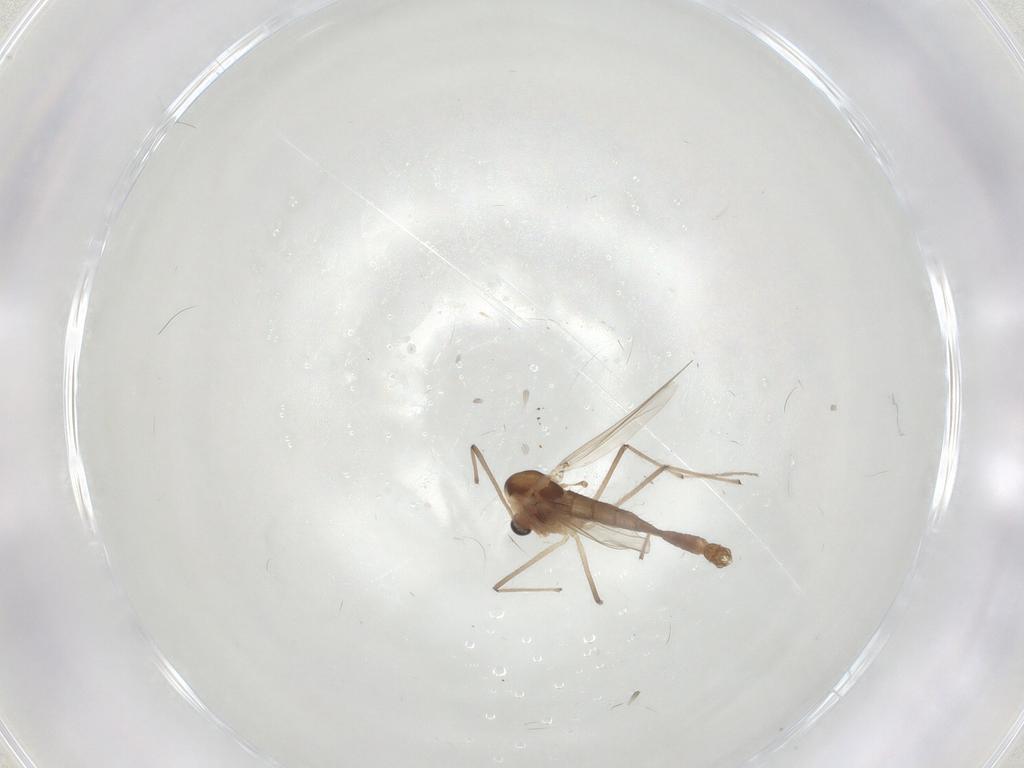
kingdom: Animalia
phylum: Arthropoda
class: Insecta
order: Diptera
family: Chironomidae
